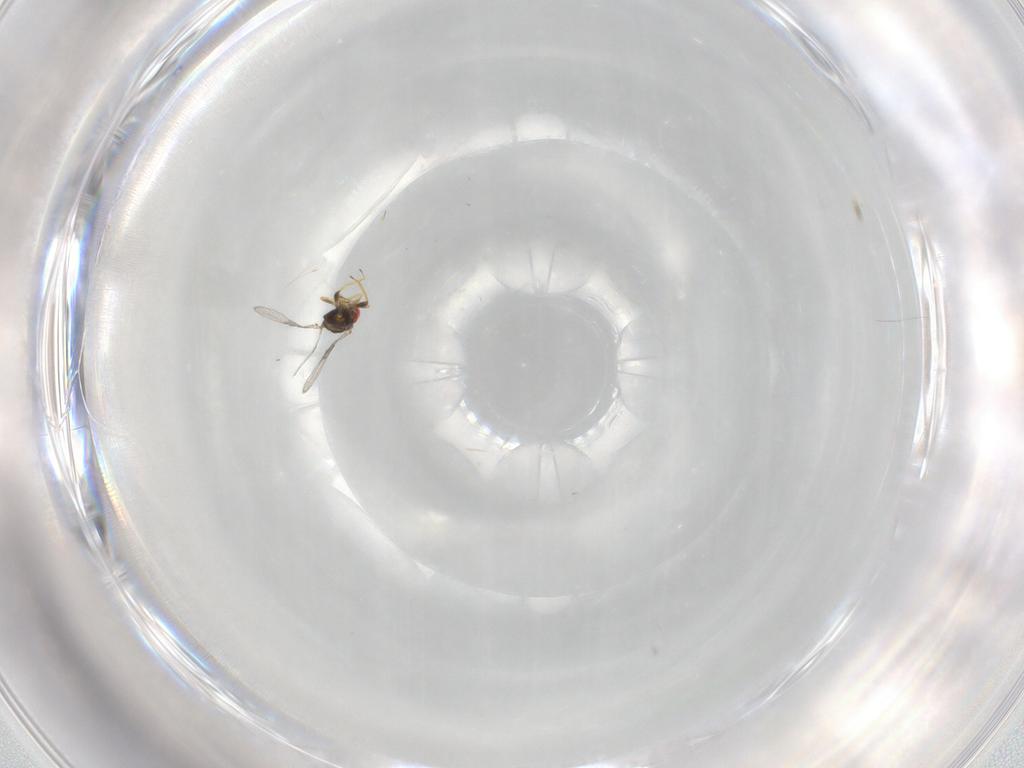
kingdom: Animalia
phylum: Arthropoda
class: Insecta
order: Hymenoptera
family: Trichogrammatidae
